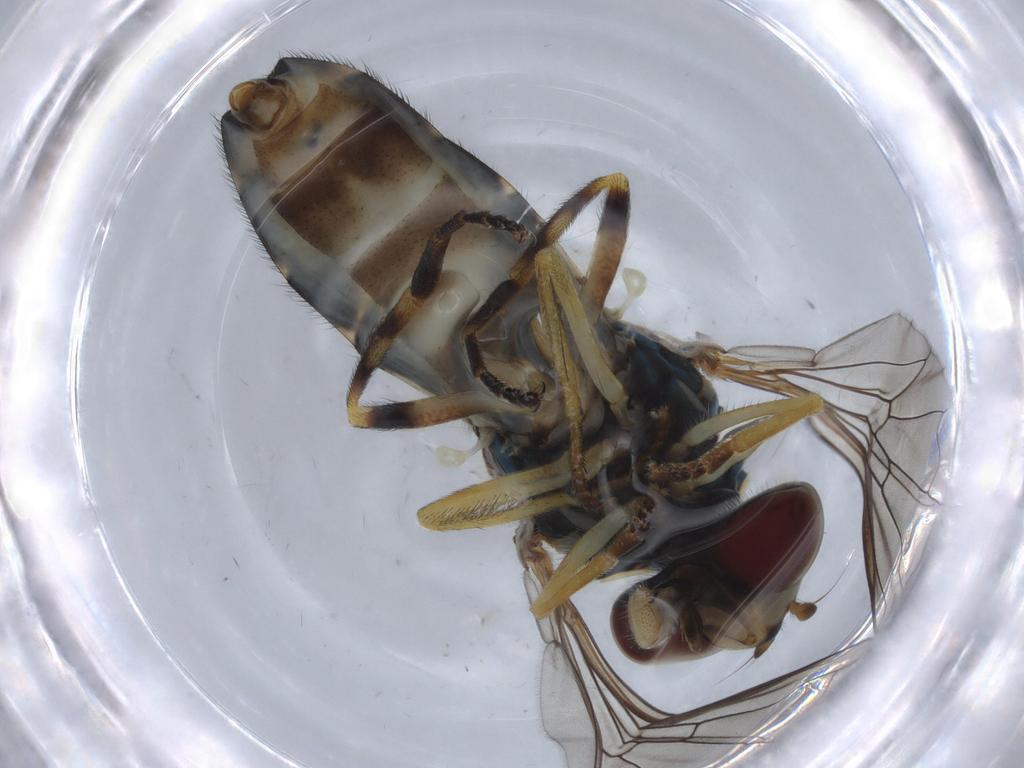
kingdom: Animalia
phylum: Arthropoda
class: Insecta
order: Diptera
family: Syrphidae
